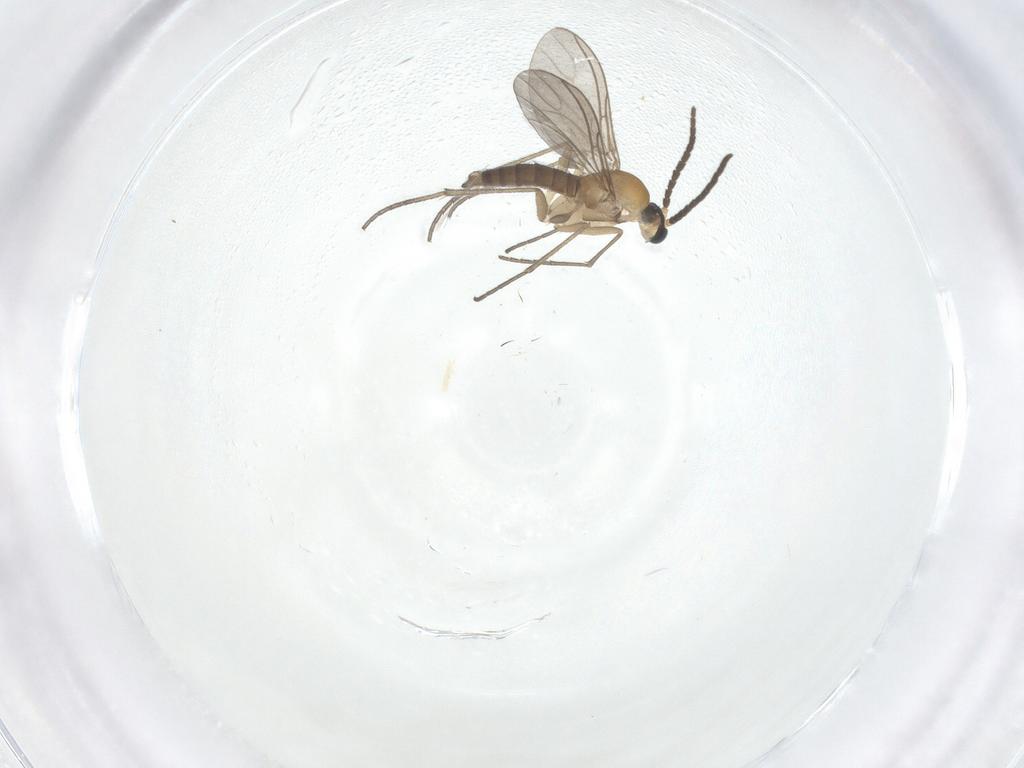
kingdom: Animalia
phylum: Arthropoda
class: Insecta
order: Diptera
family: Sciaridae
